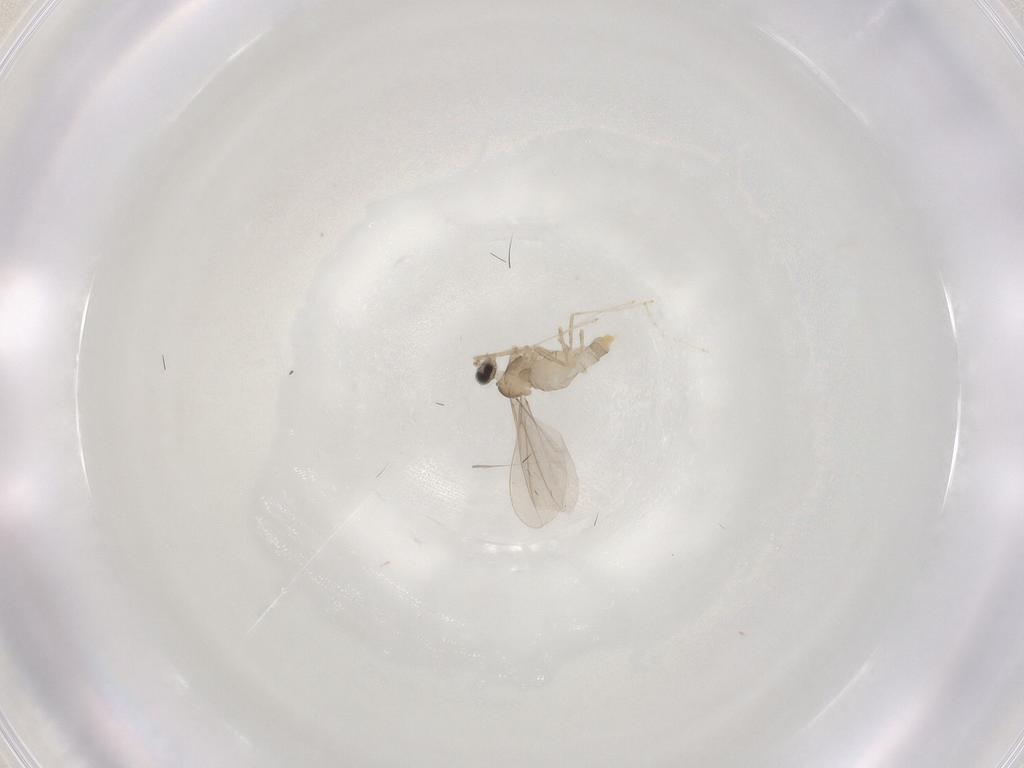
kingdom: Animalia
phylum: Arthropoda
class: Insecta
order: Diptera
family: Cecidomyiidae
